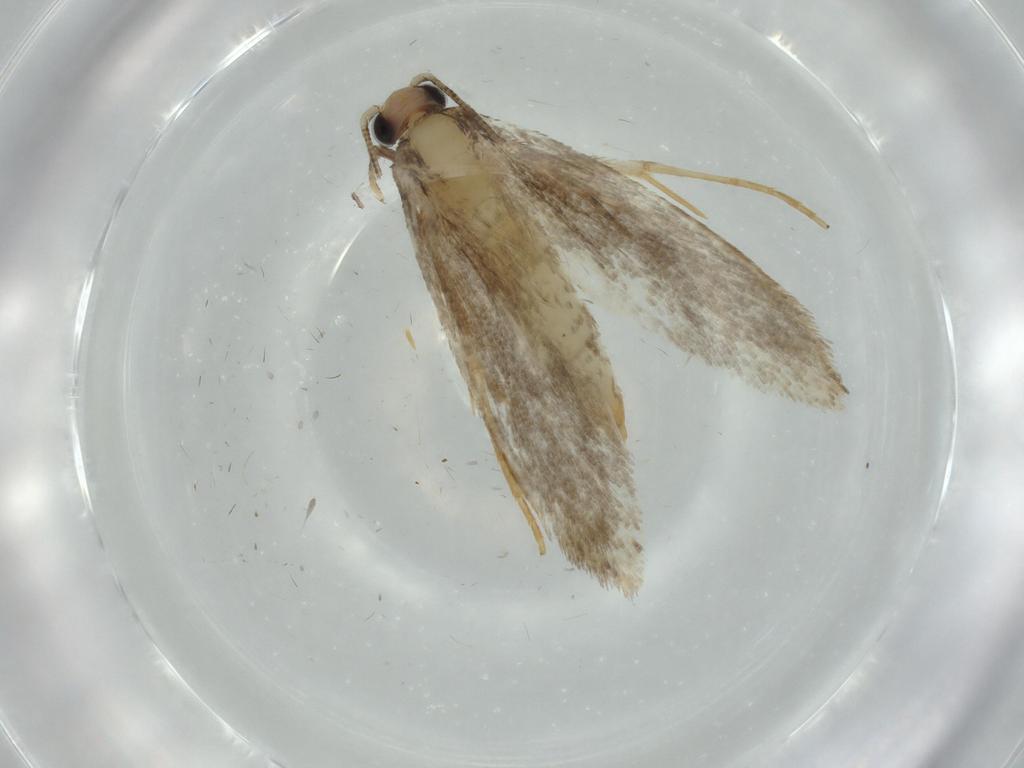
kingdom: Animalia
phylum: Arthropoda
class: Insecta
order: Lepidoptera
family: Tineidae
